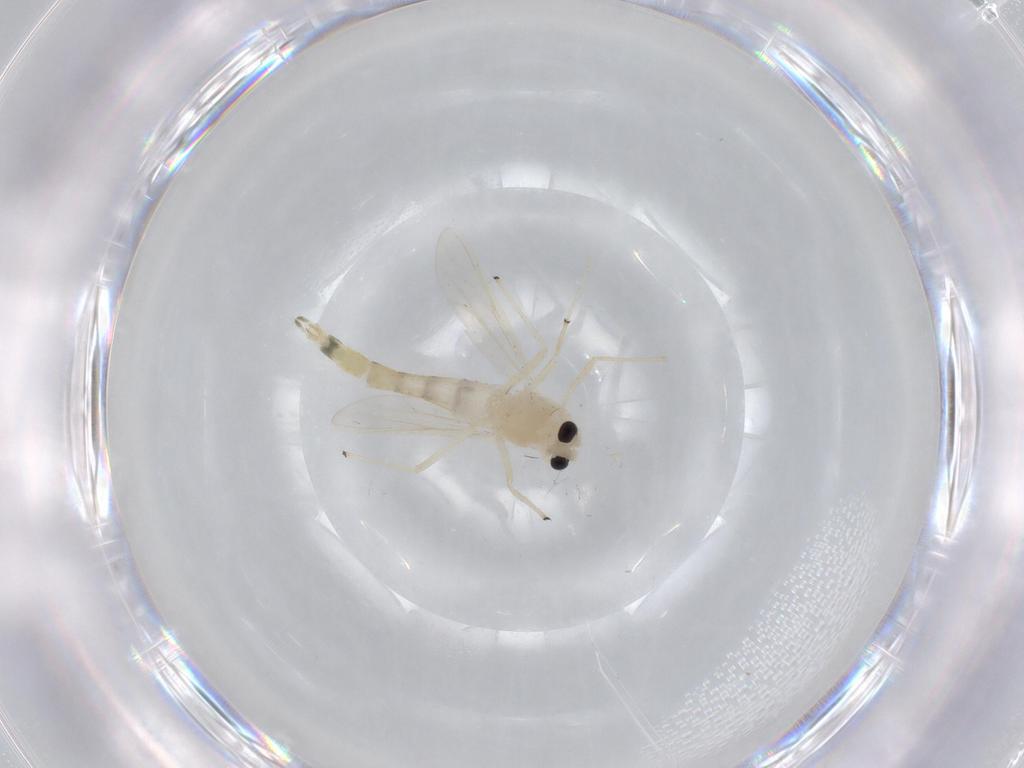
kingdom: Animalia
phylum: Arthropoda
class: Insecta
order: Diptera
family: Chironomidae
